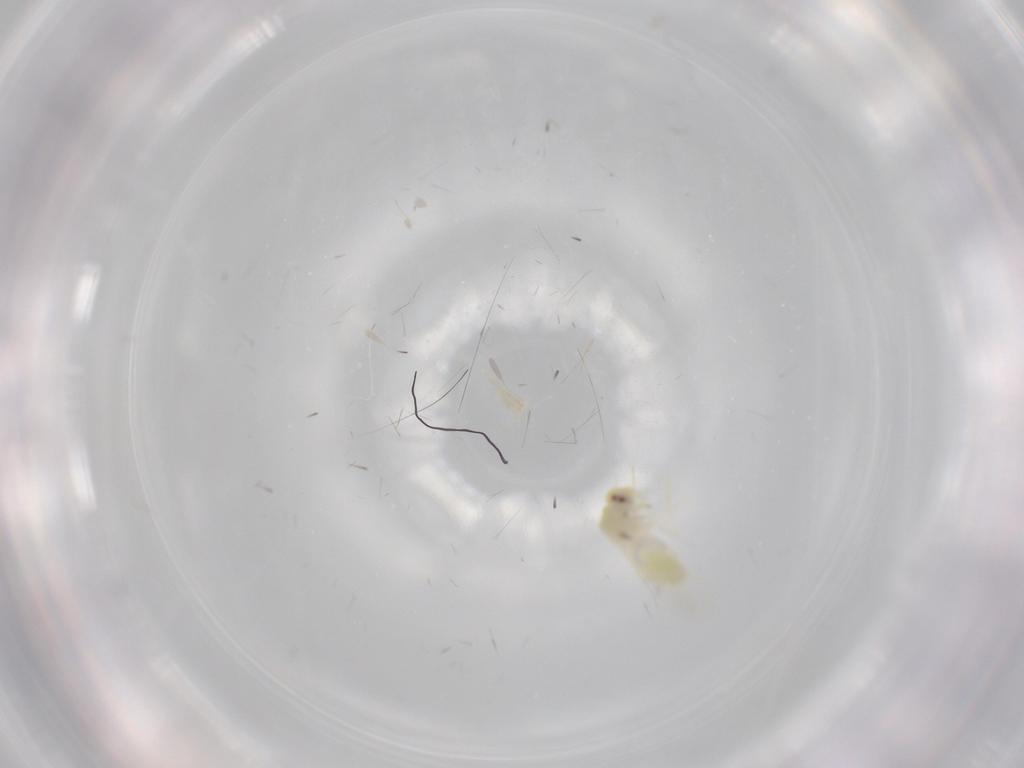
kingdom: Animalia
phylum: Arthropoda
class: Insecta
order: Hemiptera
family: Aleyrodidae
